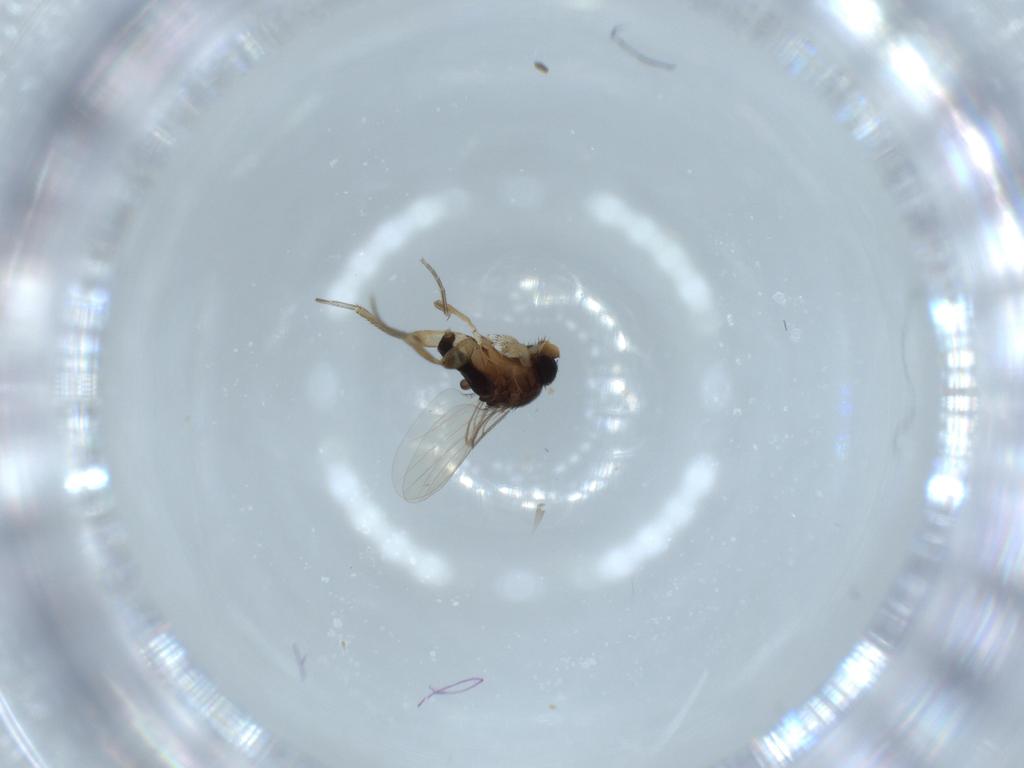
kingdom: Animalia
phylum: Arthropoda
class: Insecta
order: Diptera
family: Phoridae
